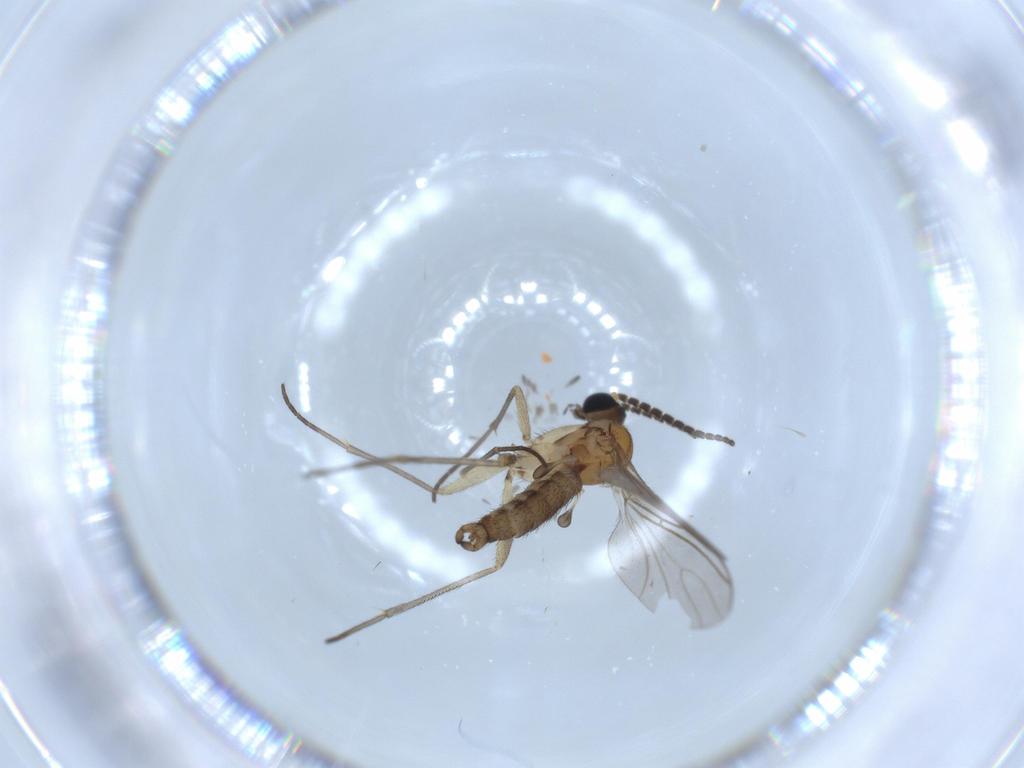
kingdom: Animalia
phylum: Arthropoda
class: Insecta
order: Diptera
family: Sciaridae
